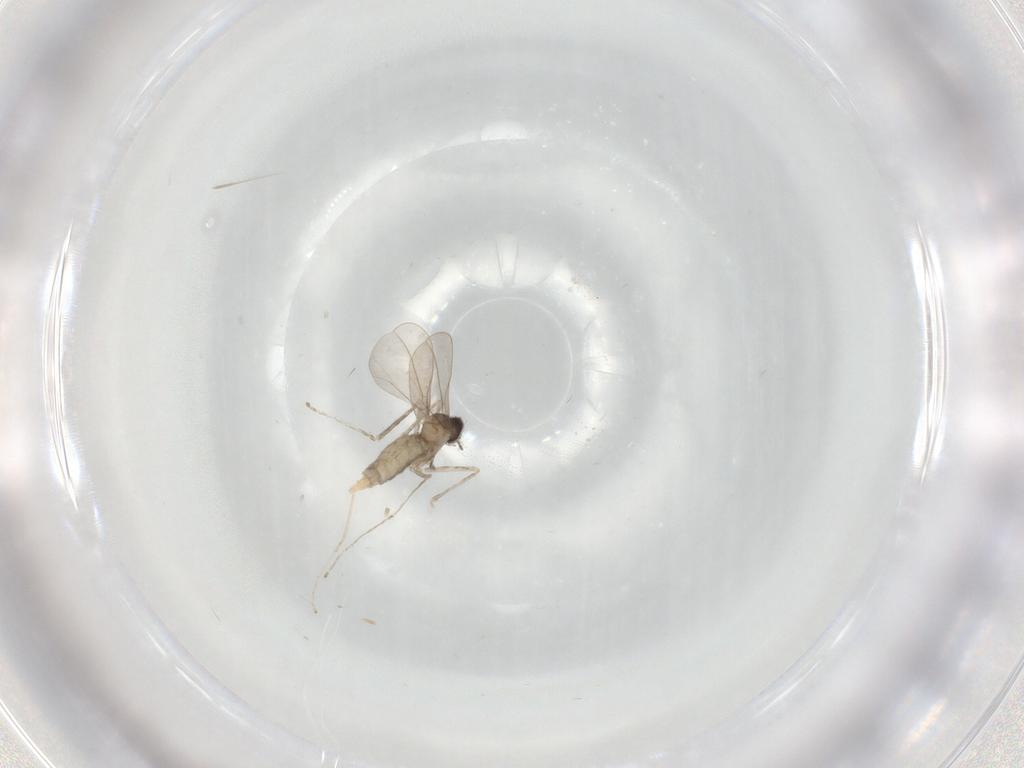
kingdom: Animalia
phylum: Arthropoda
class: Insecta
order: Diptera
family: Cecidomyiidae
